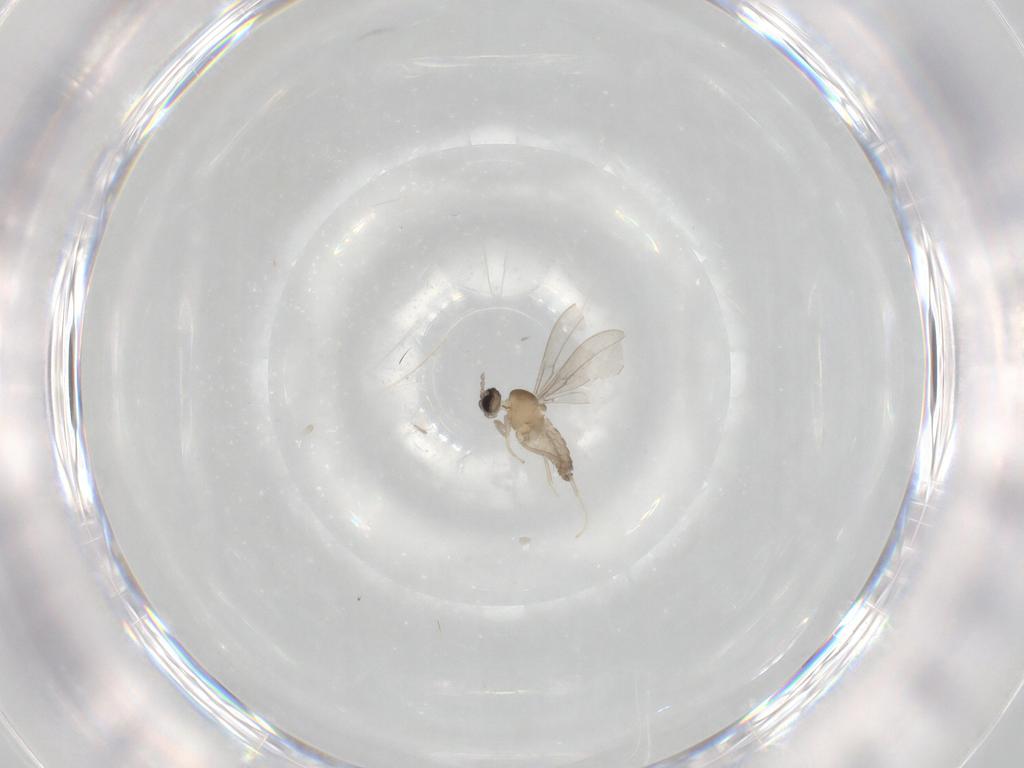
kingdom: Animalia
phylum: Arthropoda
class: Insecta
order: Diptera
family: Cecidomyiidae
